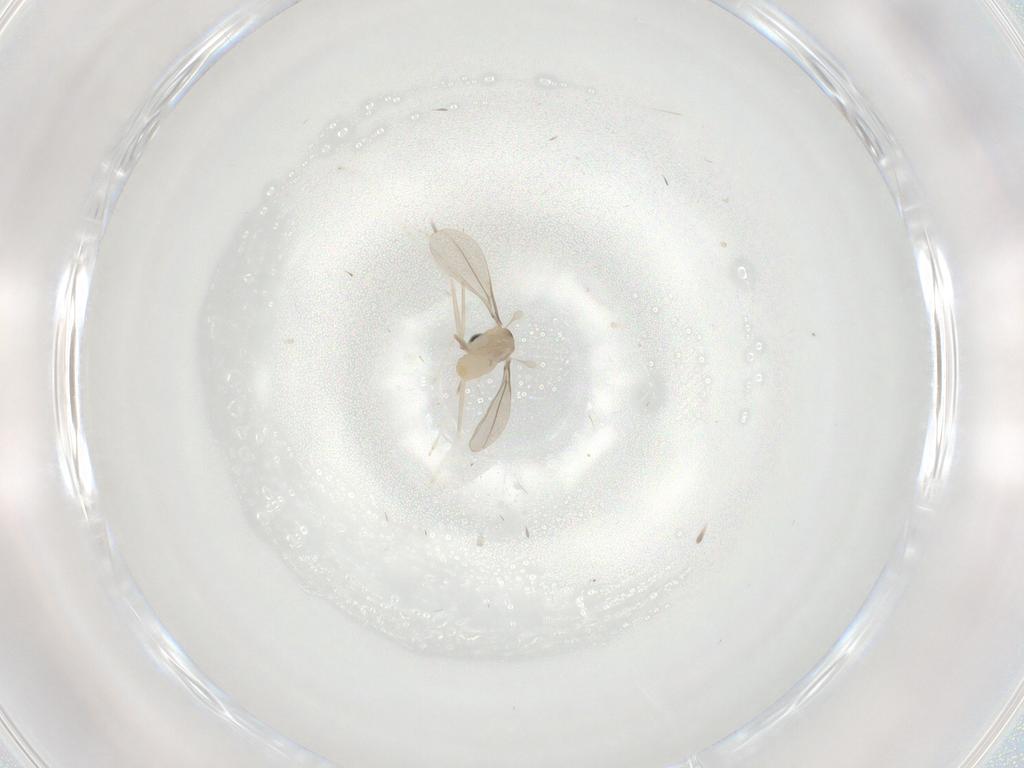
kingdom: Animalia
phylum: Arthropoda
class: Insecta
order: Diptera
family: Cecidomyiidae
